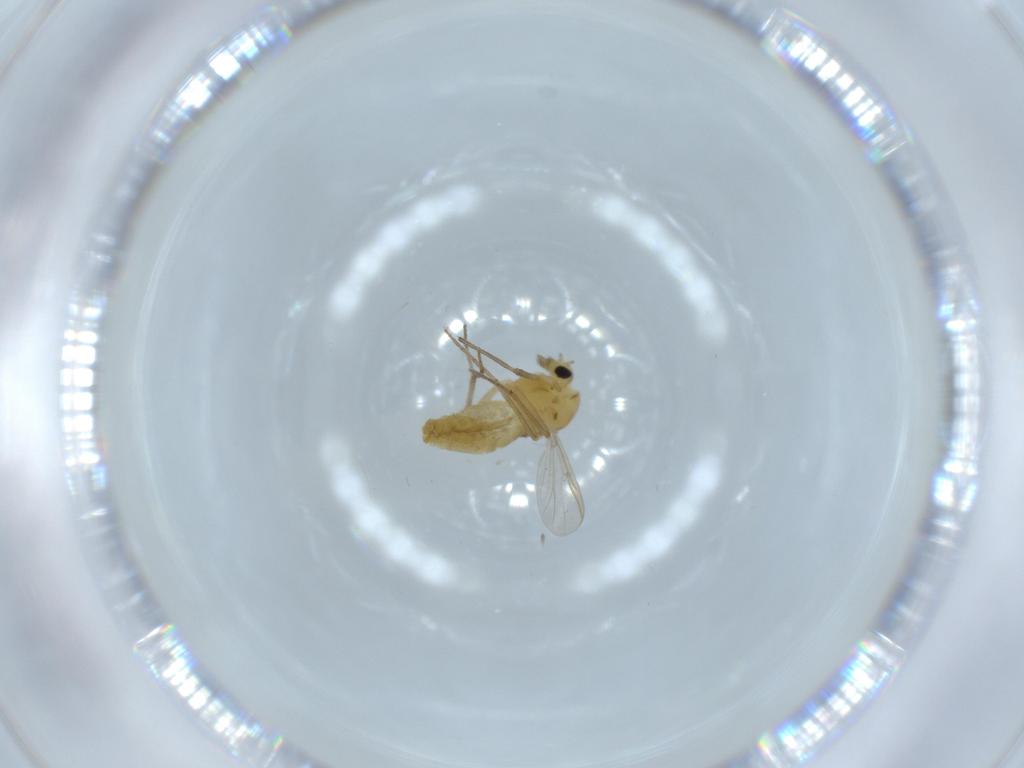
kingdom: Animalia
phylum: Arthropoda
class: Insecta
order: Diptera
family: Chironomidae
